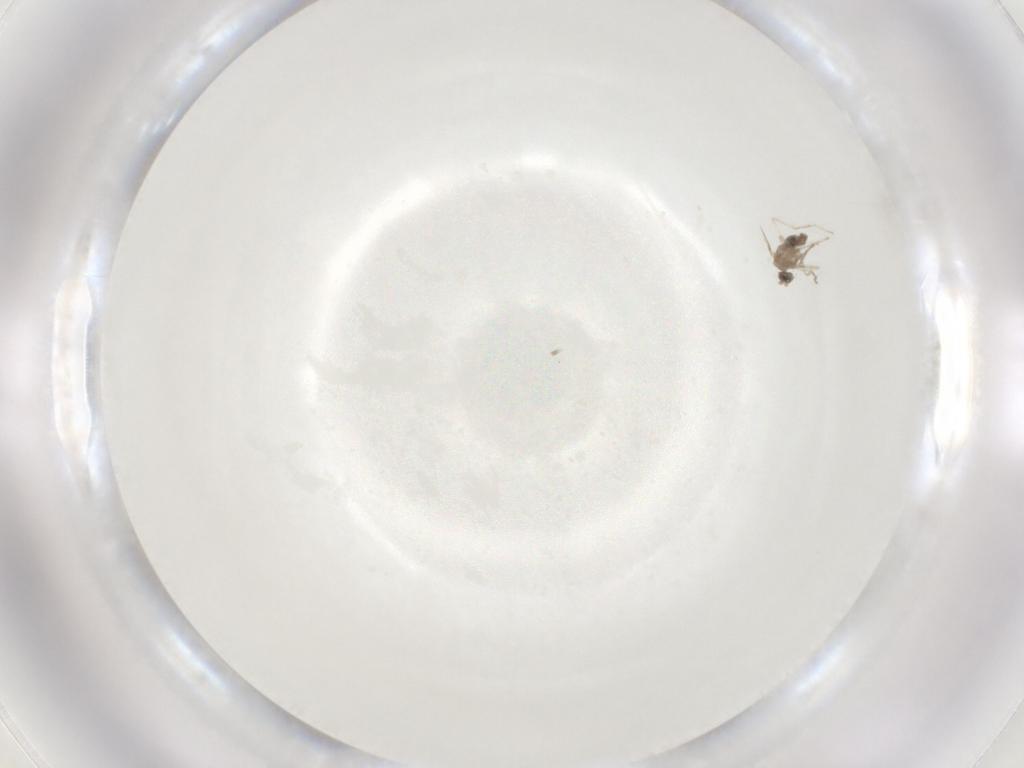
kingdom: Animalia
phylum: Arthropoda
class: Insecta
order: Diptera
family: Cecidomyiidae
